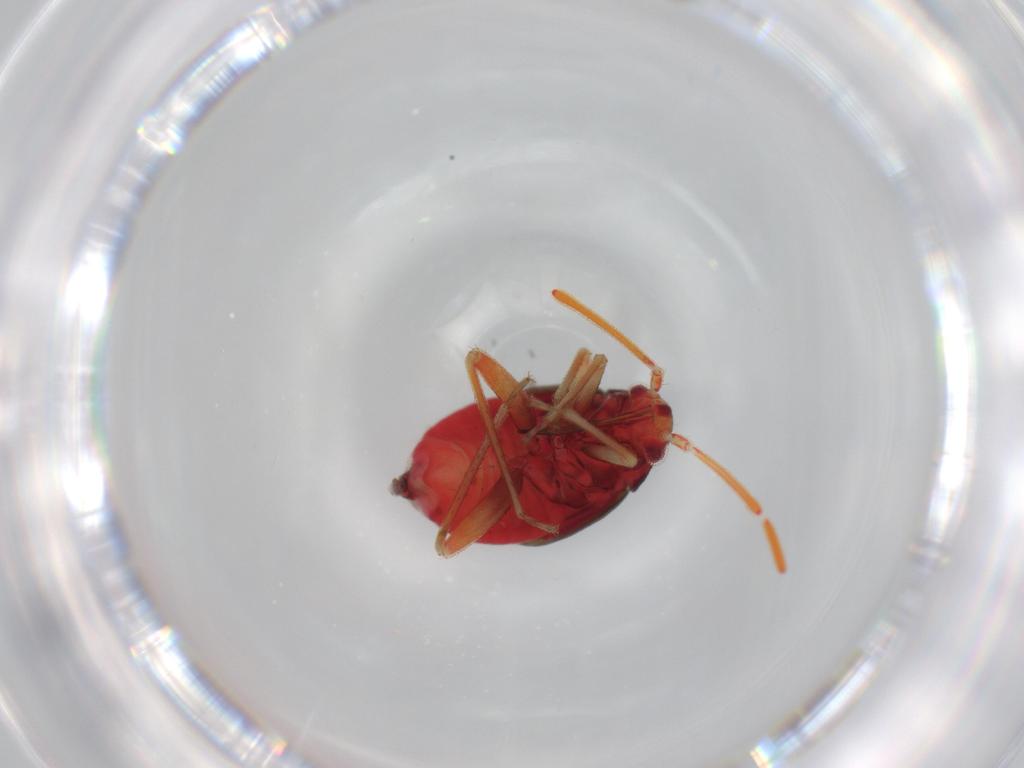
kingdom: Animalia
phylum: Arthropoda
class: Insecta
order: Hemiptera
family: Miridae
